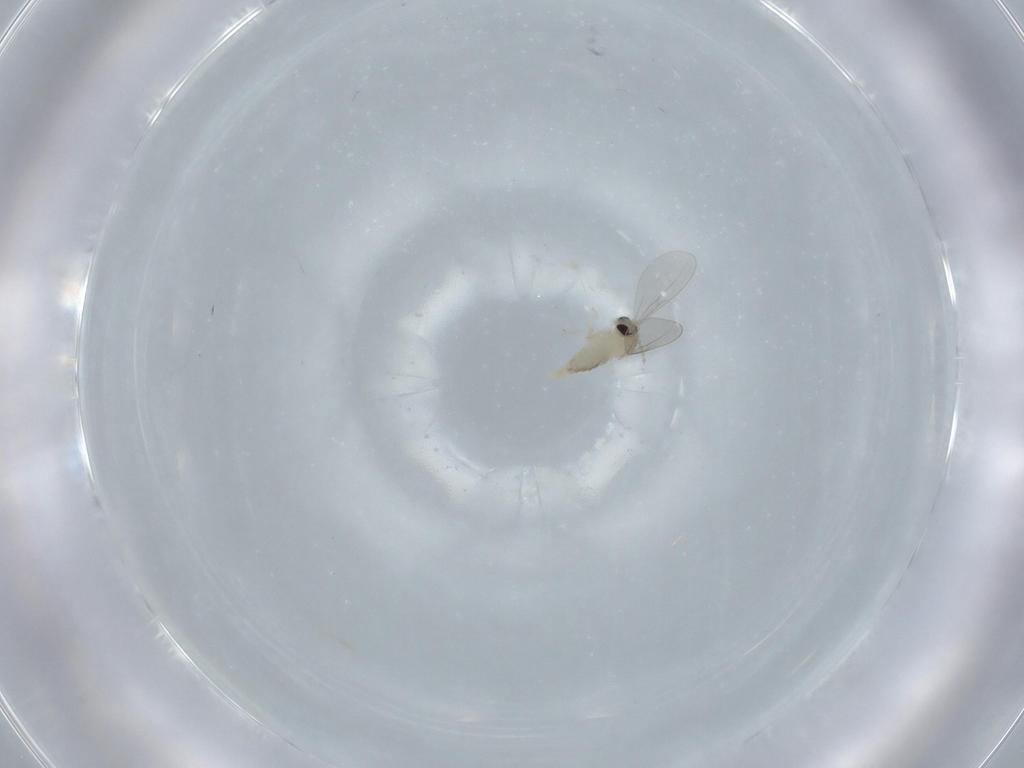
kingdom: Animalia
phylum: Arthropoda
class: Insecta
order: Diptera
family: Cecidomyiidae
